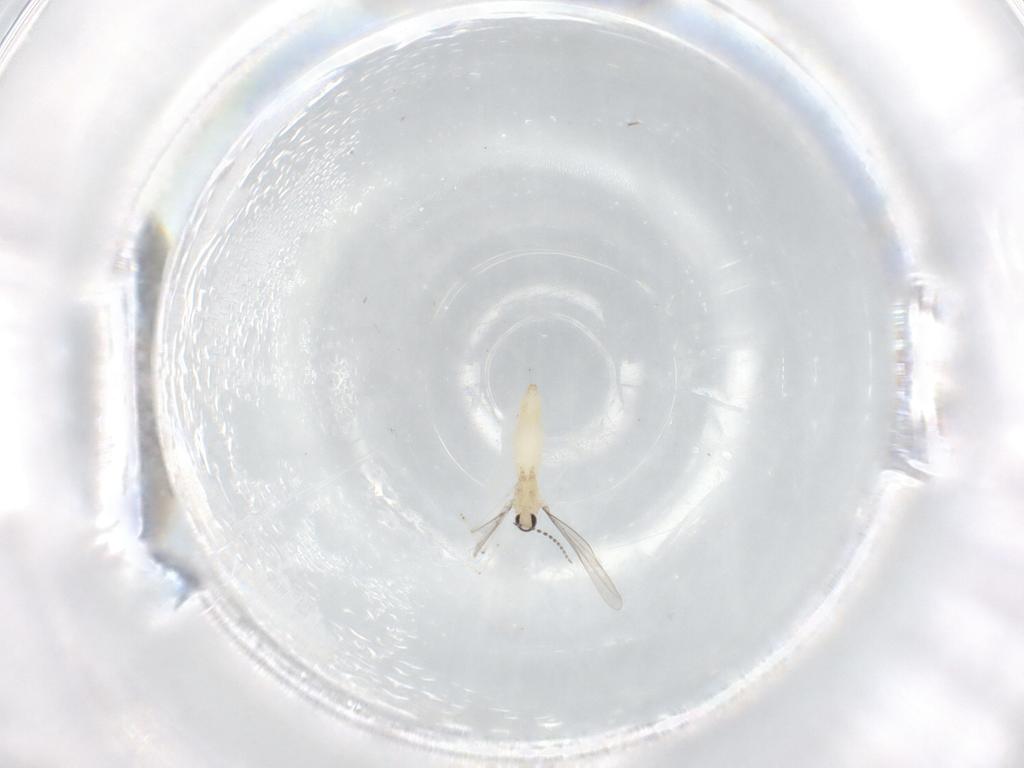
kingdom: Animalia
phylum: Arthropoda
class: Insecta
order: Diptera
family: Cecidomyiidae
